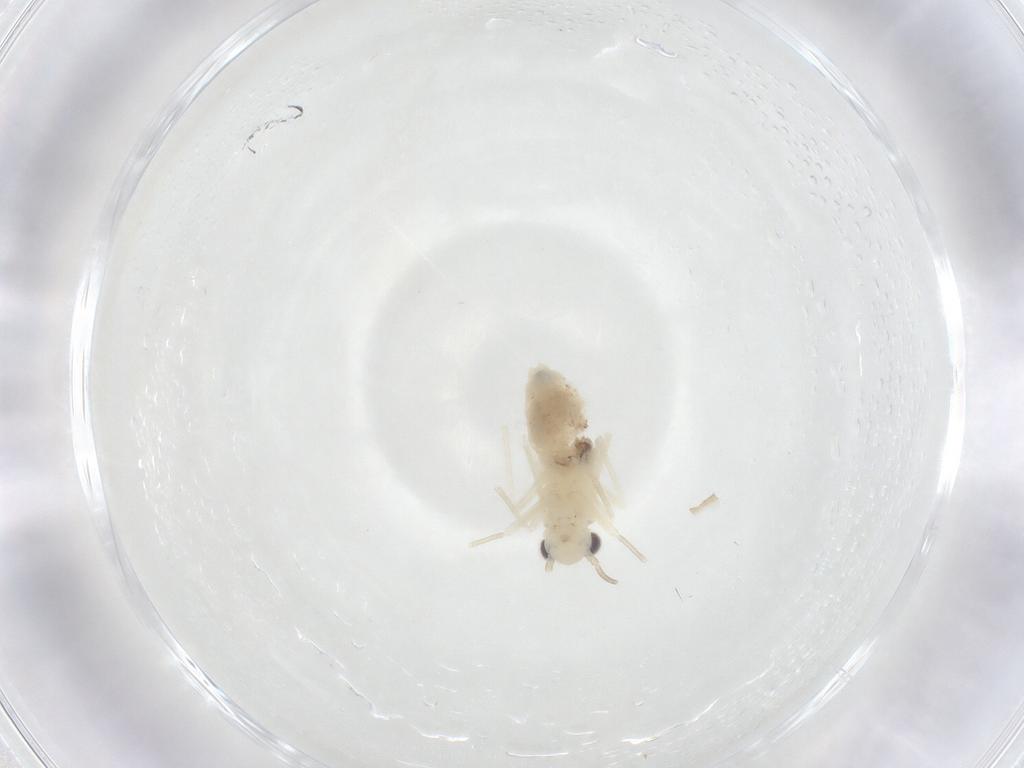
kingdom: Animalia
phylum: Arthropoda
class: Insecta
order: Psocodea
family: Caeciliusidae
